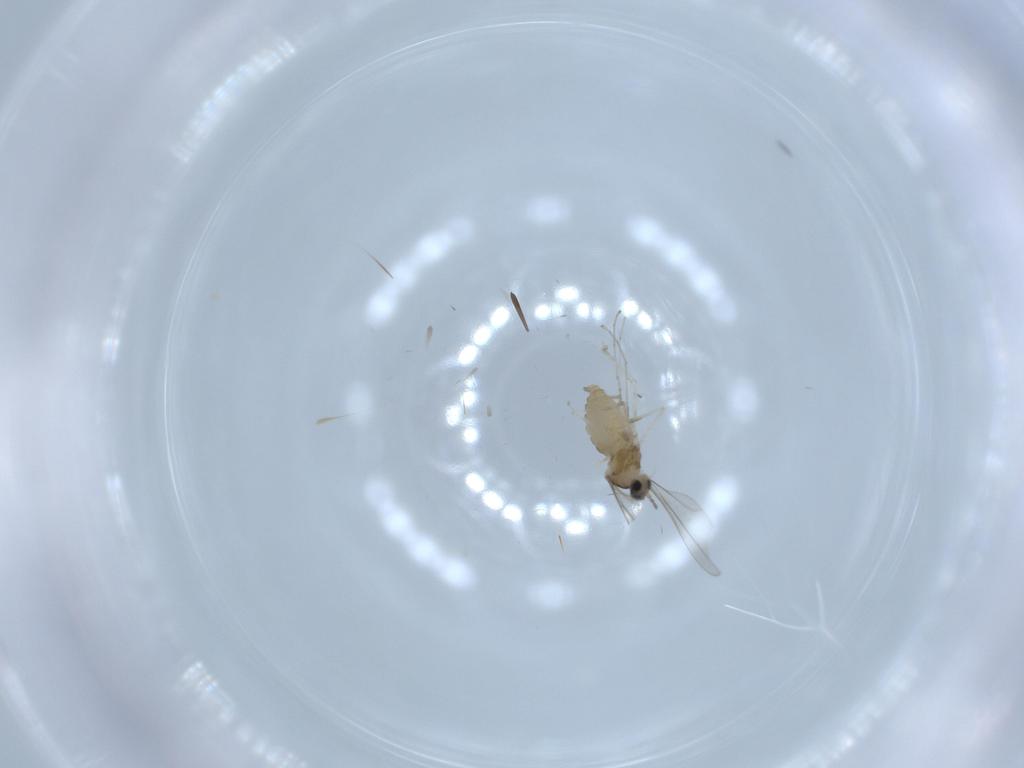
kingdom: Animalia
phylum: Arthropoda
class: Insecta
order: Diptera
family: Cecidomyiidae
